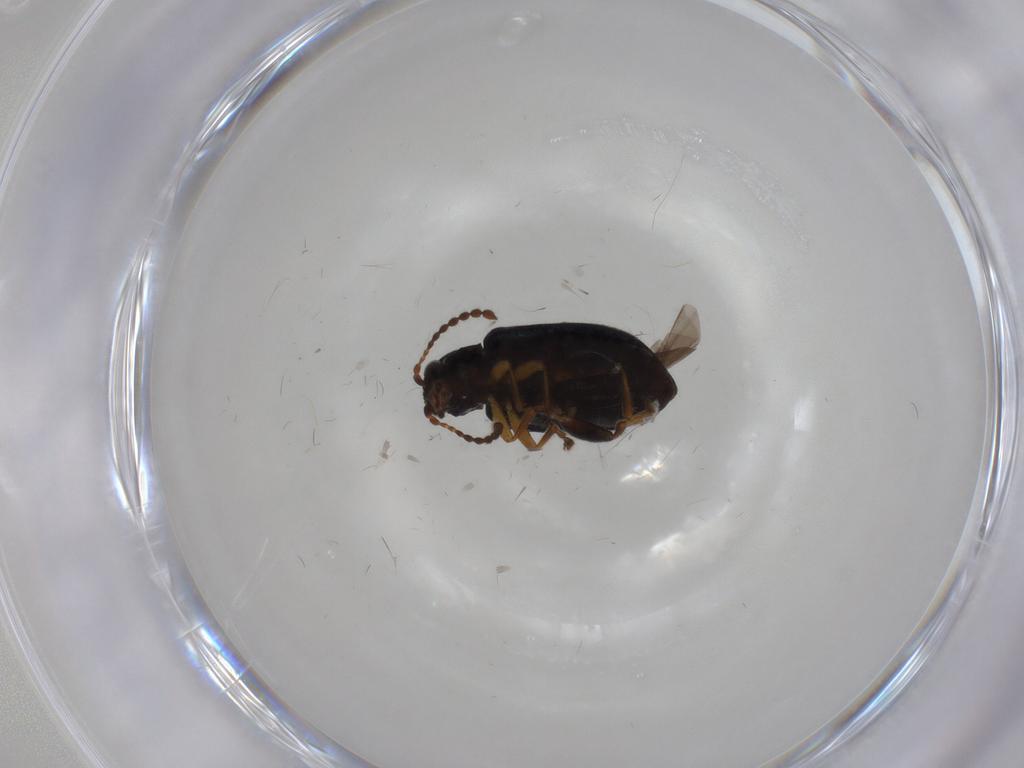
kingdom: Animalia
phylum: Arthropoda
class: Insecta
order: Coleoptera
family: Chrysomelidae
